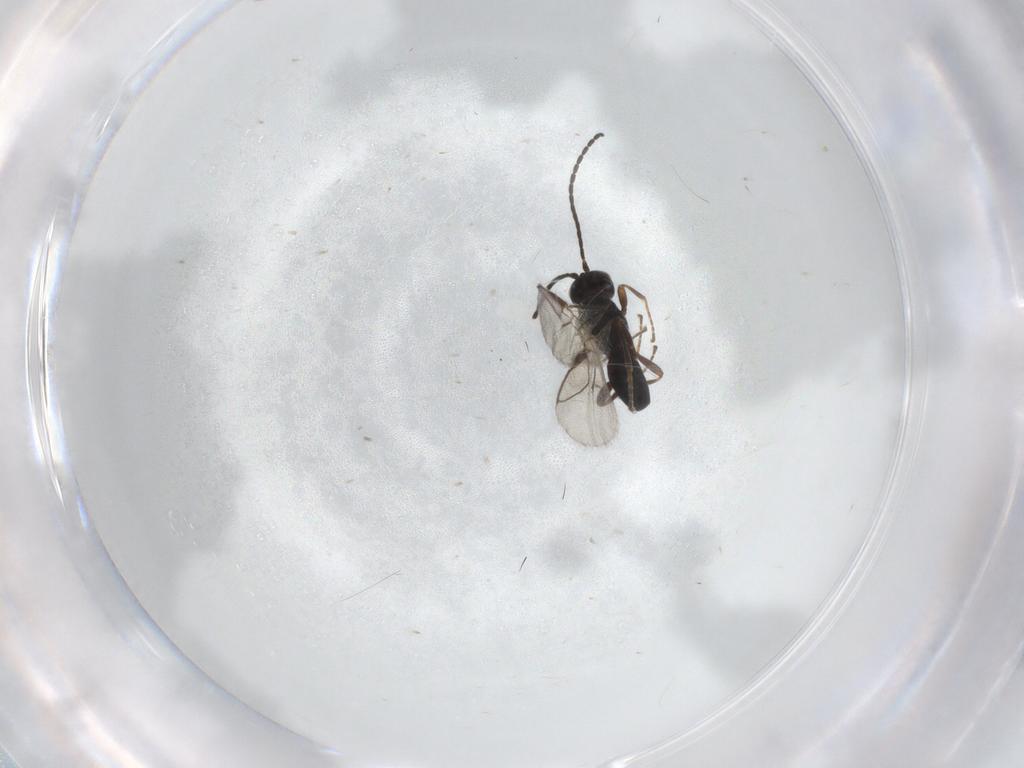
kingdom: Animalia
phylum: Arthropoda
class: Insecta
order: Hymenoptera
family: Braconidae
